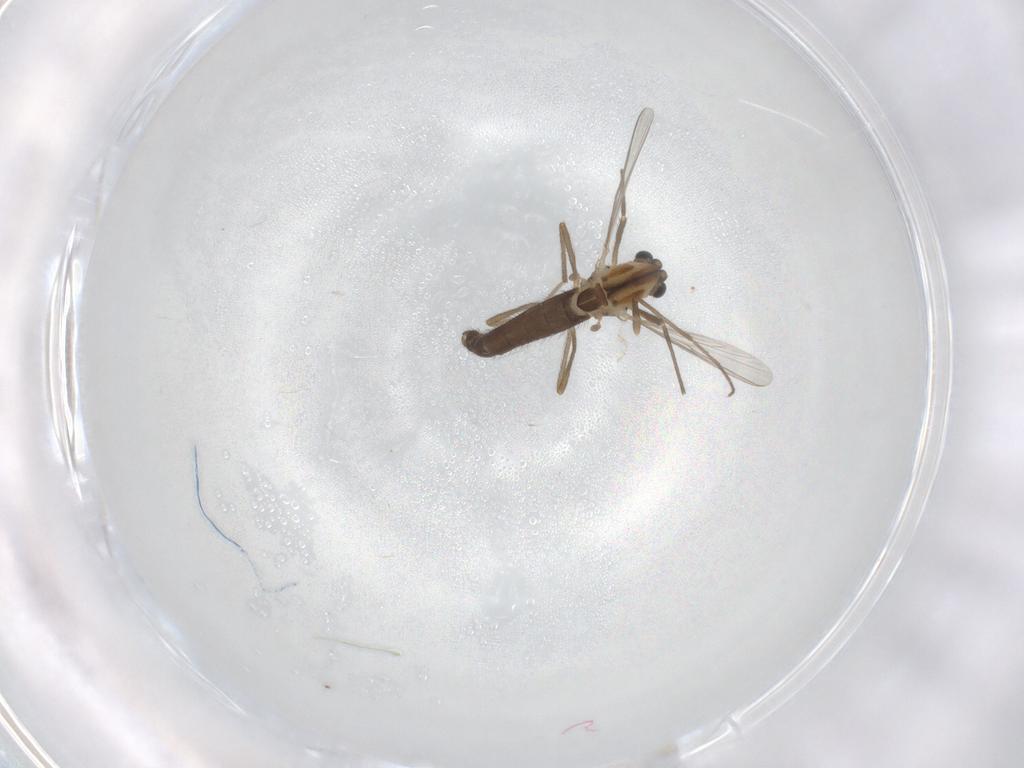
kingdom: Animalia
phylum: Arthropoda
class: Insecta
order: Diptera
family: Chironomidae
